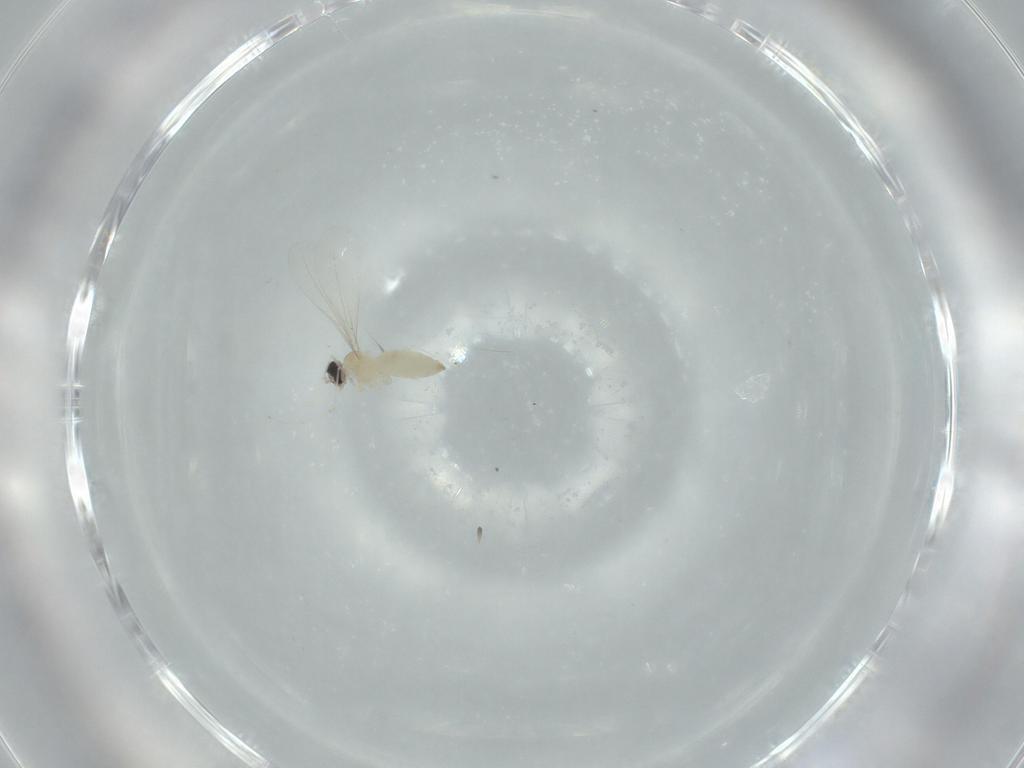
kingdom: Animalia
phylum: Arthropoda
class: Insecta
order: Diptera
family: Cecidomyiidae
